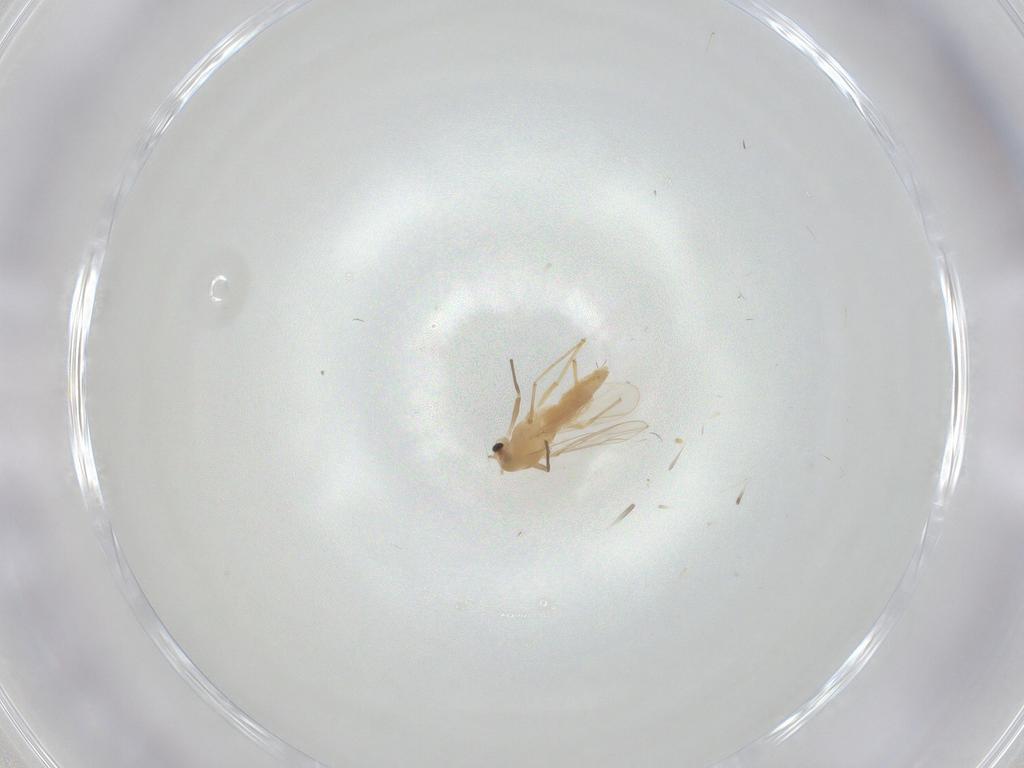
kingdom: Animalia
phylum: Arthropoda
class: Insecta
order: Diptera
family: Chironomidae
